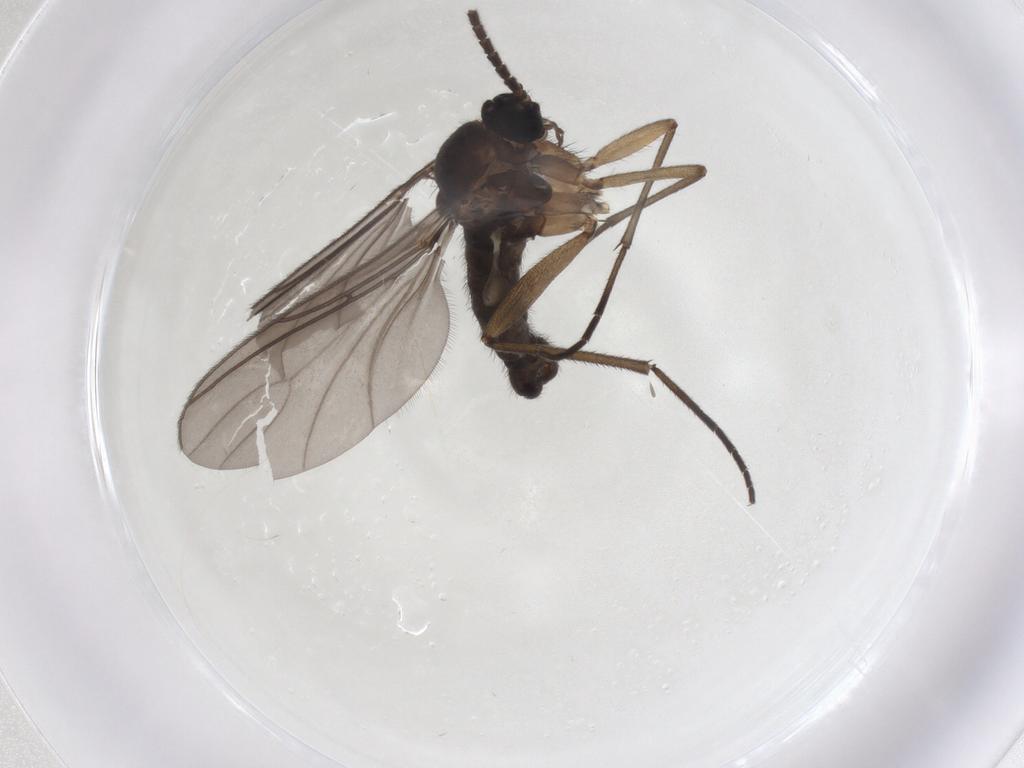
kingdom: Animalia
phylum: Arthropoda
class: Insecta
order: Diptera
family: Sciaridae
